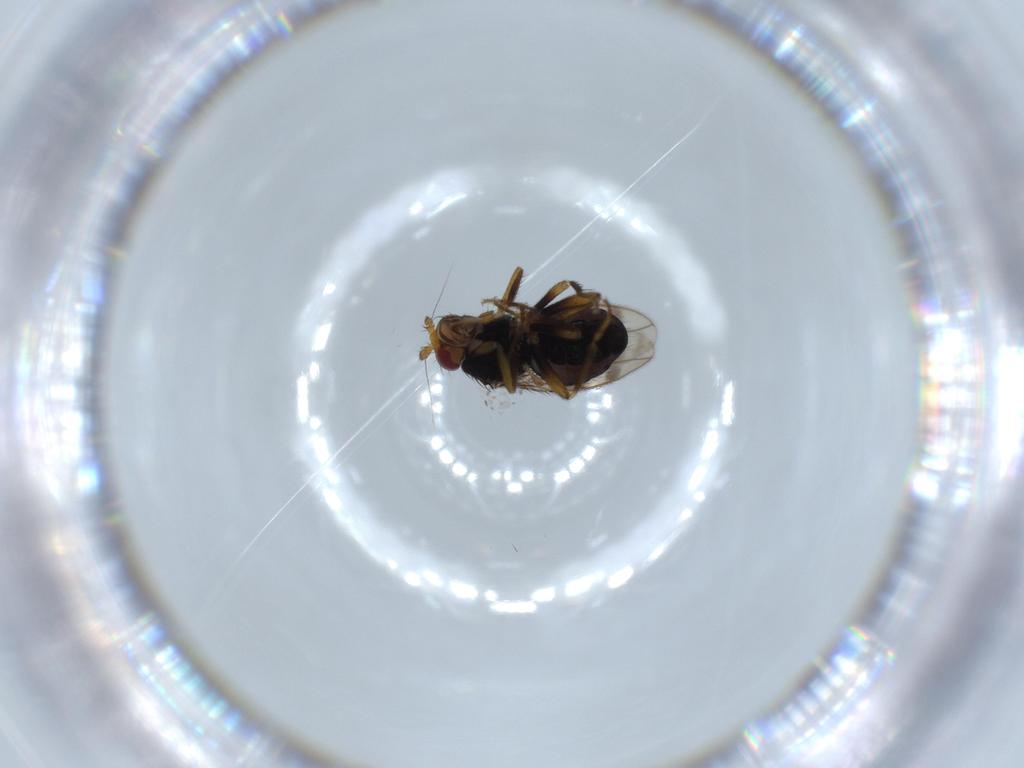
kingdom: Animalia
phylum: Arthropoda
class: Insecta
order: Diptera
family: Sphaeroceridae
